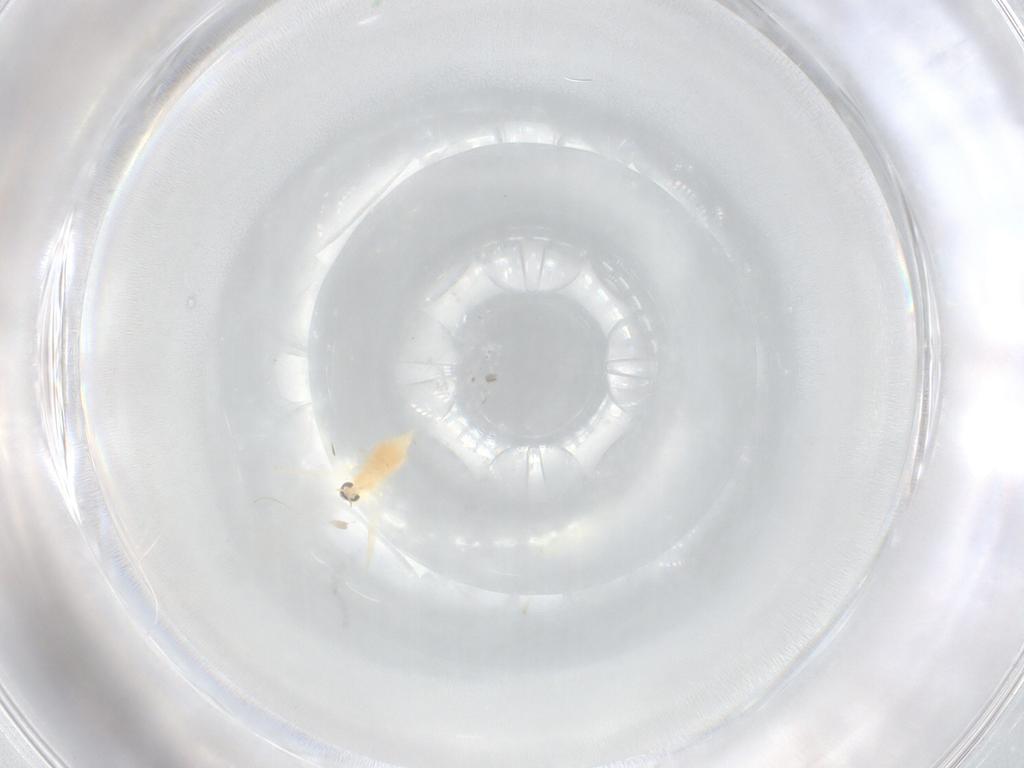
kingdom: Animalia
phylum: Arthropoda
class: Insecta
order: Diptera
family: Cecidomyiidae
